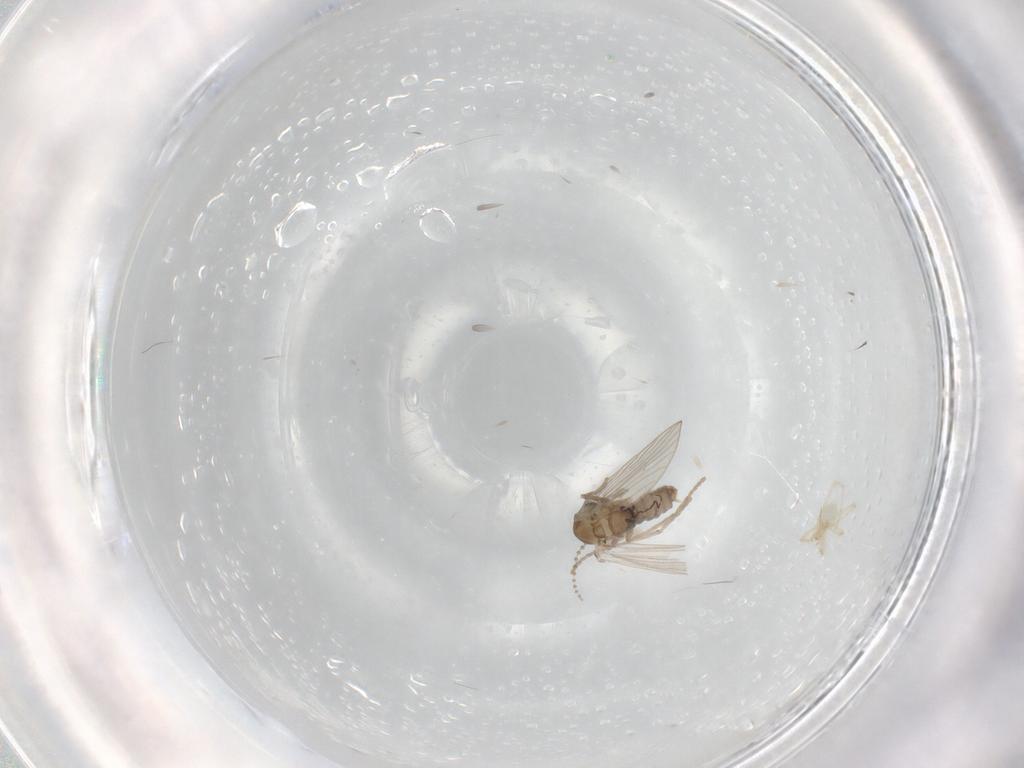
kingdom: Animalia
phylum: Arthropoda
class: Insecta
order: Diptera
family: Psychodidae
